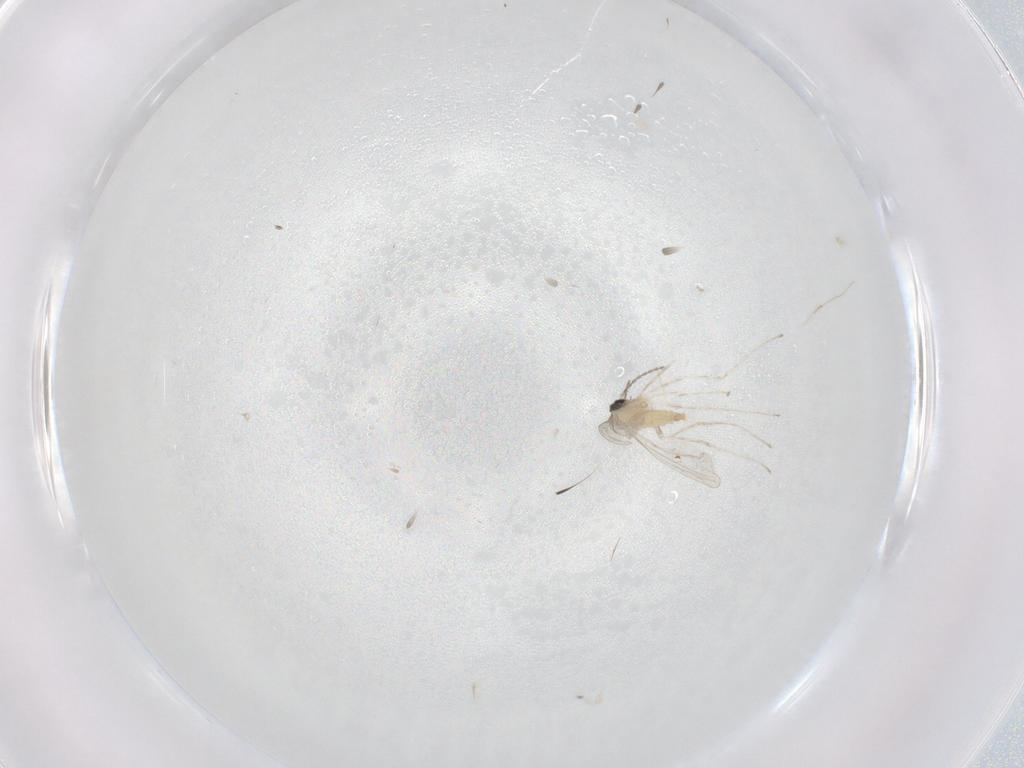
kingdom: Animalia
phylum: Arthropoda
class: Insecta
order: Diptera
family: Cecidomyiidae
